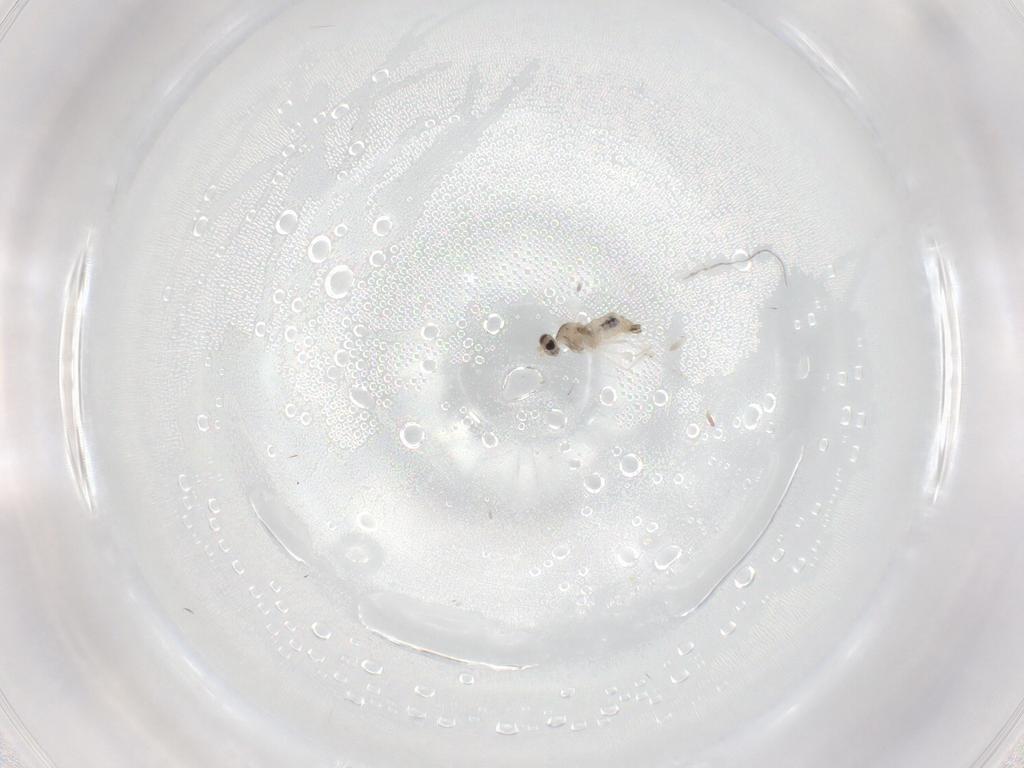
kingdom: Animalia
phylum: Arthropoda
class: Insecta
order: Diptera
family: Cecidomyiidae
